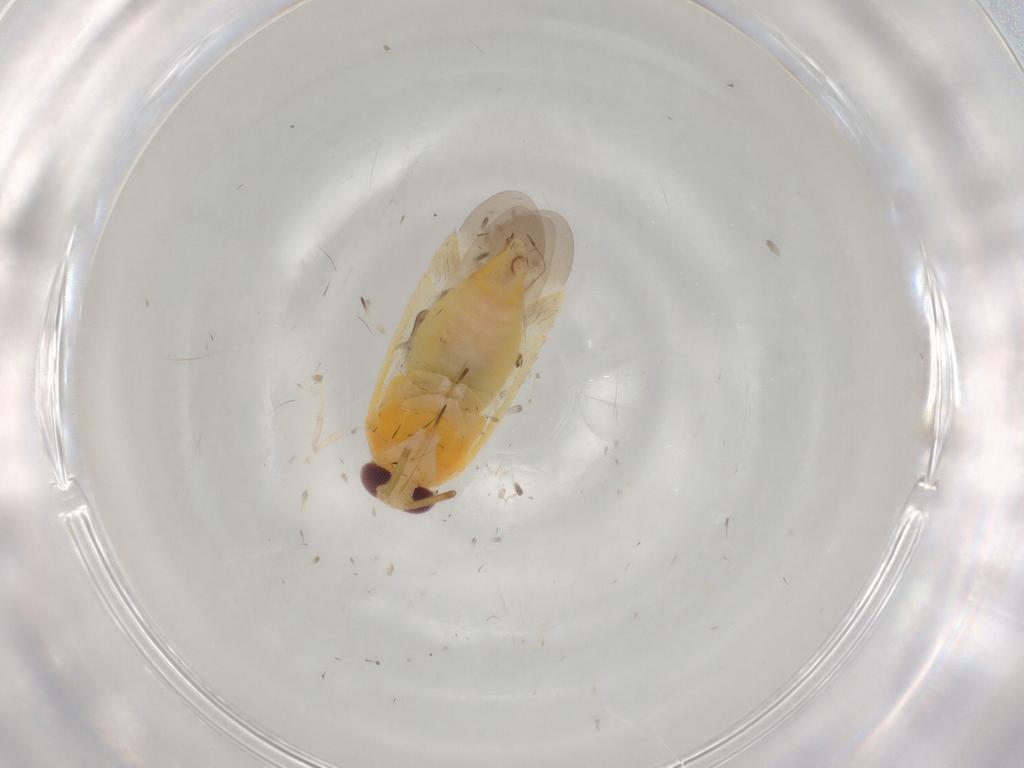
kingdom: Animalia
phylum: Arthropoda
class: Insecta
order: Hemiptera
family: Miridae
